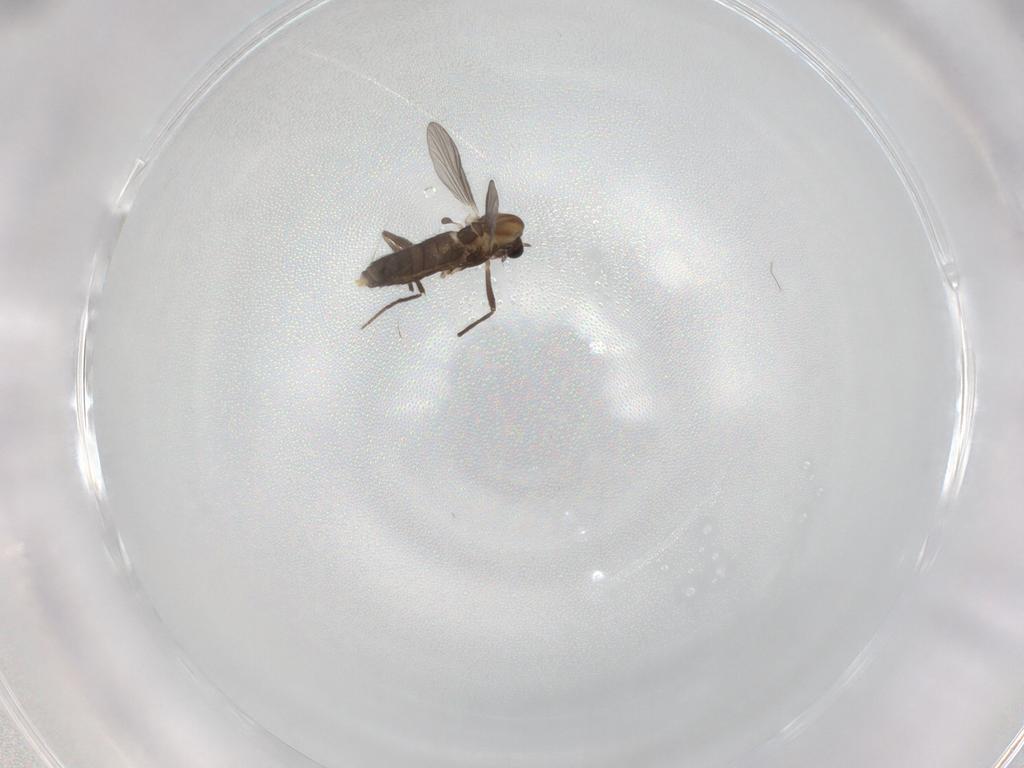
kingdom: Animalia
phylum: Arthropoda
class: Insecta
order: Diptera
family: Chironomidae
